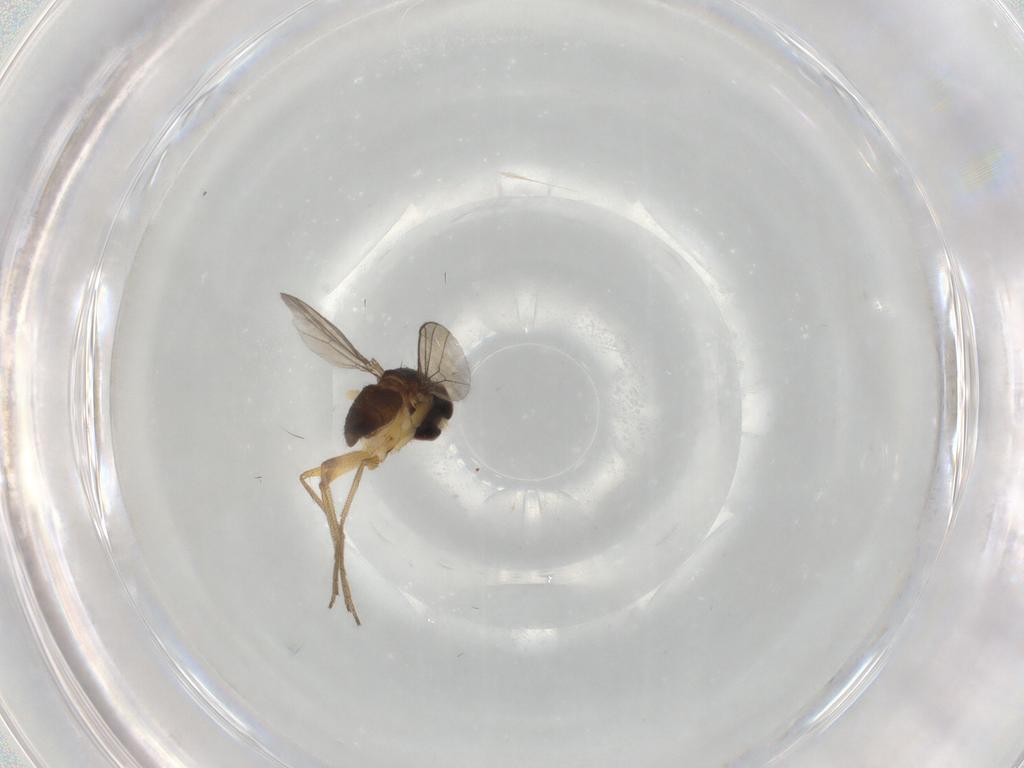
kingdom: Animalia
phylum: Arthropoda
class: Insecta
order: Diptera
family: Dolichopodidae
